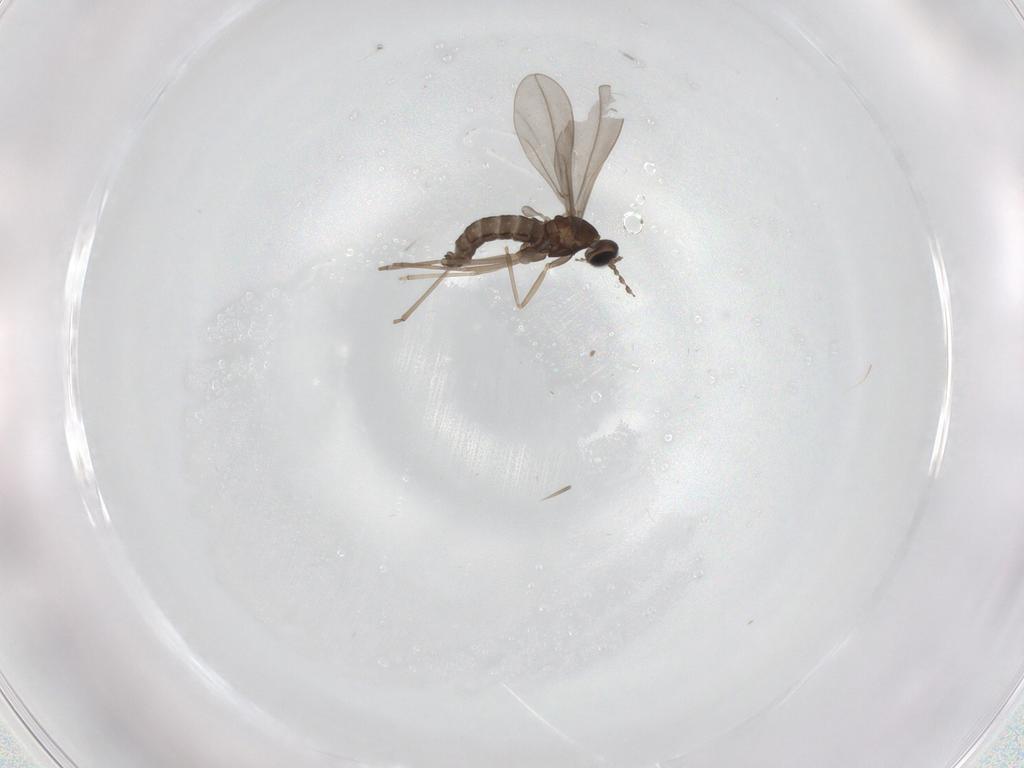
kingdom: Animalia
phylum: Arthropoda
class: Insecta
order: Diptera
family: Cecidomyiidae
